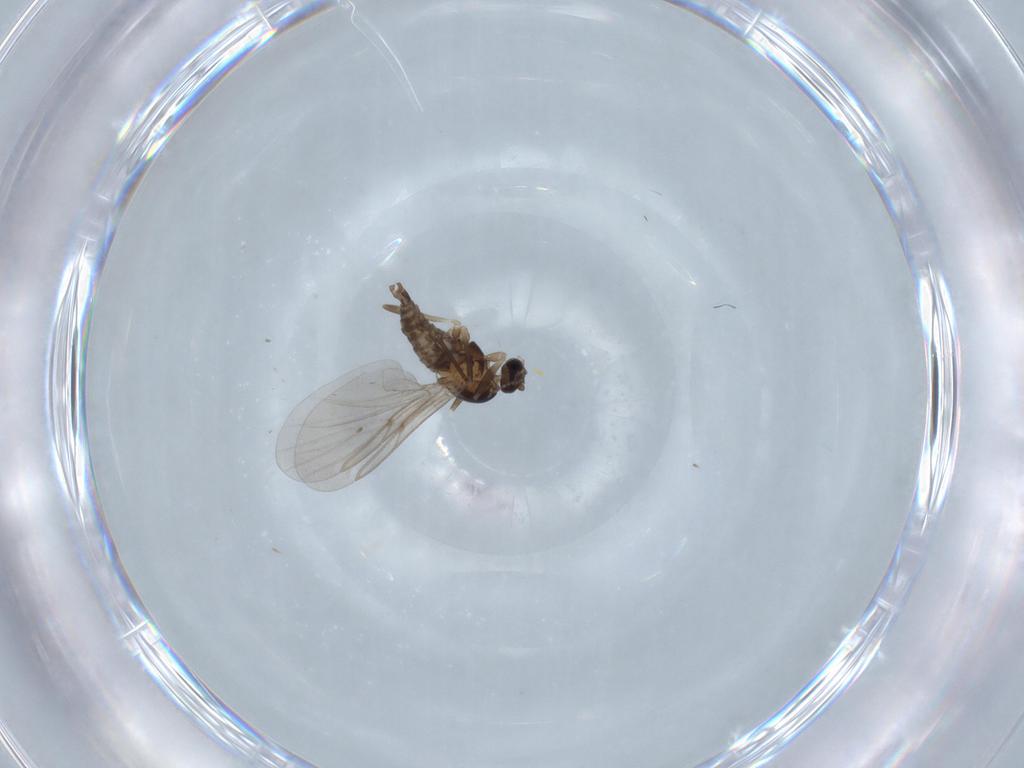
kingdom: Animalia
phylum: Arthropoda
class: Insecta
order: Diptera
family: Cecidomyiidae
